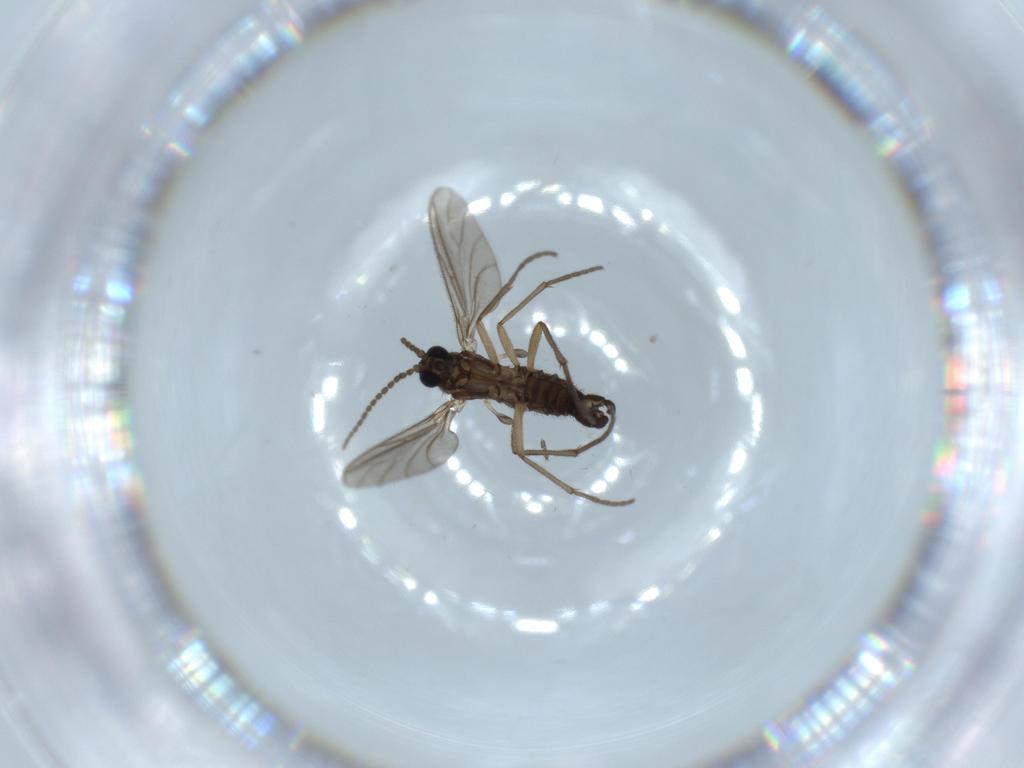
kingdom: Animalia
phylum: Arthropoda
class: Insecta
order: Diptera
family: Sciaridae
